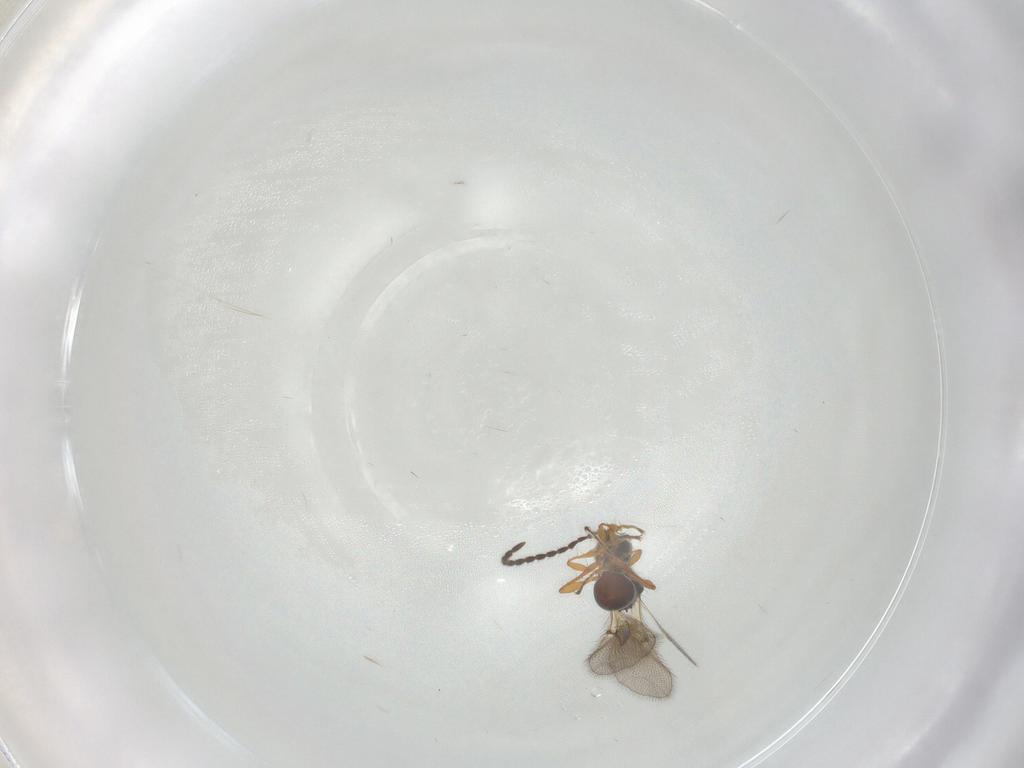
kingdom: Animalia
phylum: Arthropoda
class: Insecta
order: Hymenoptera
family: Diapriidae
